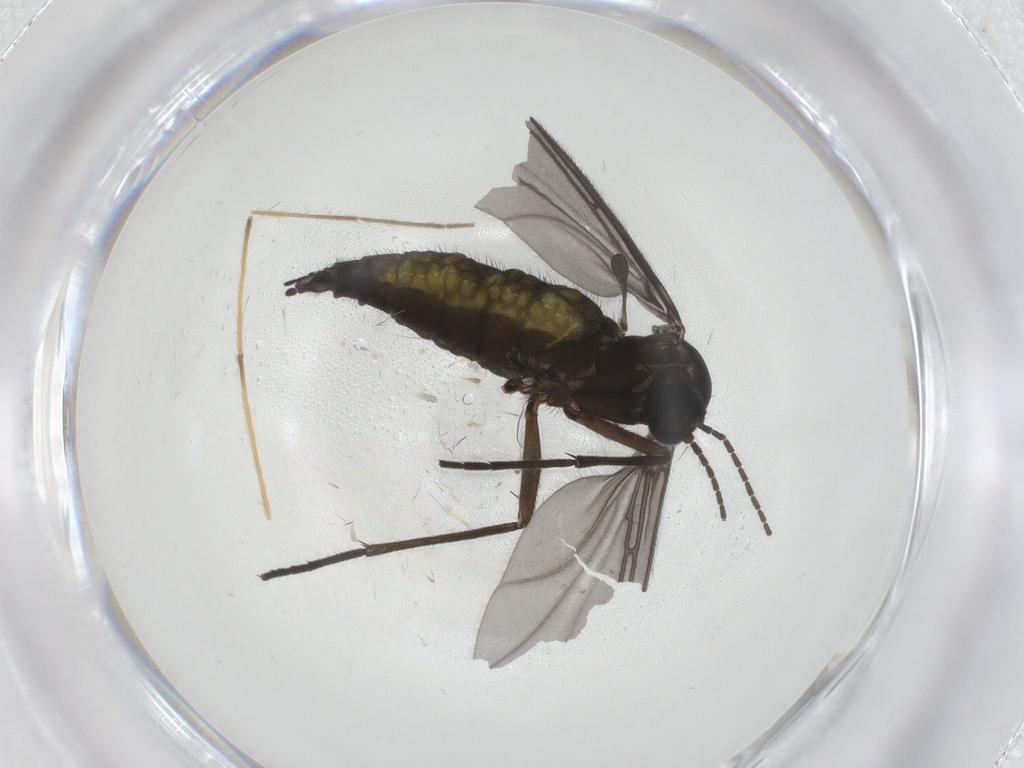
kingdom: Animalia
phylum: Arthropoda
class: Insecta
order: Diptera
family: Sciaridae
